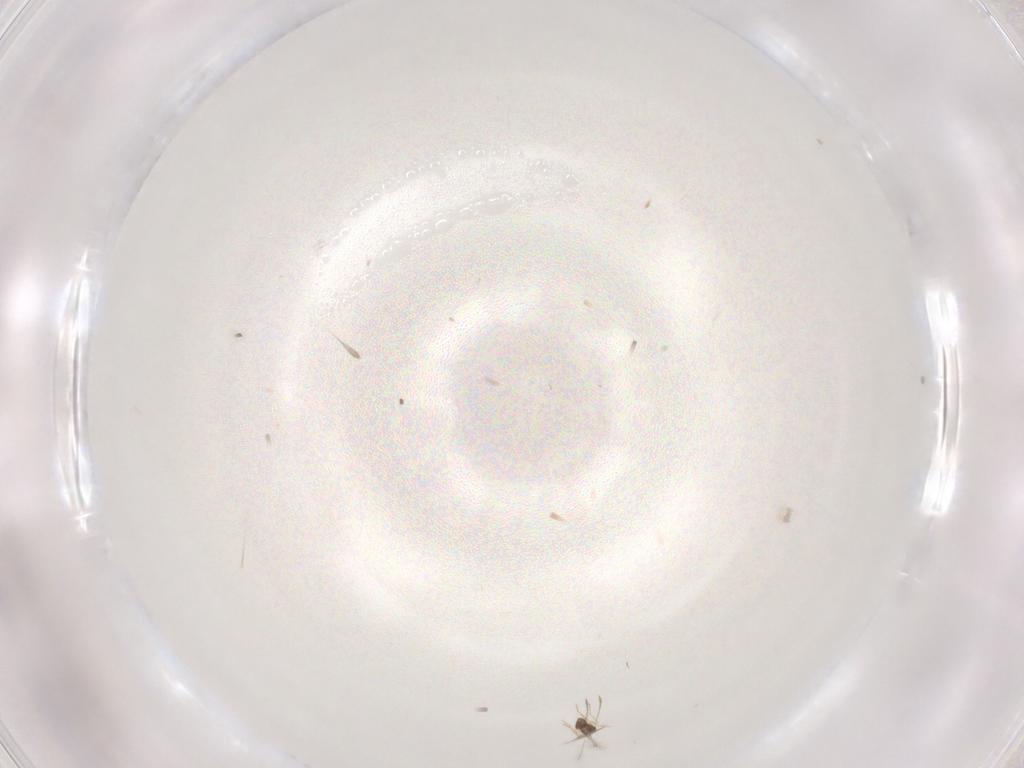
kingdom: Animalia
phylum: Arthropoda
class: Insecta
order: Hymenoptera
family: Mymaridae
